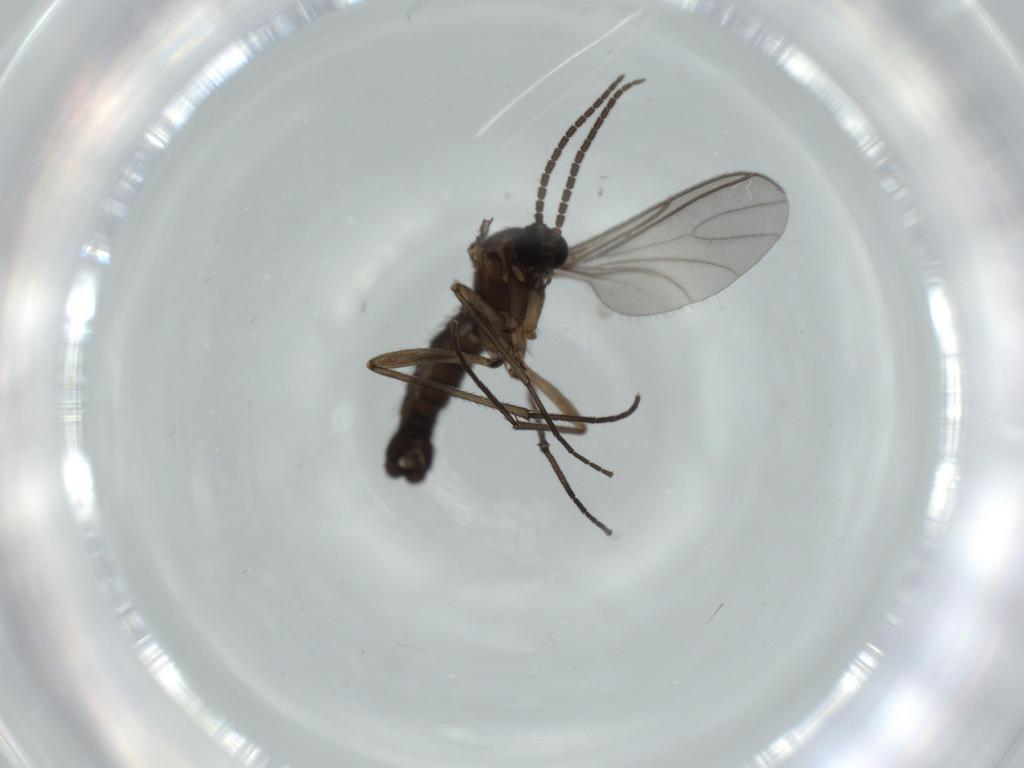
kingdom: Animalia
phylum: Arthropoda
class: Insecta
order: Diptera
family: Sciaridae
